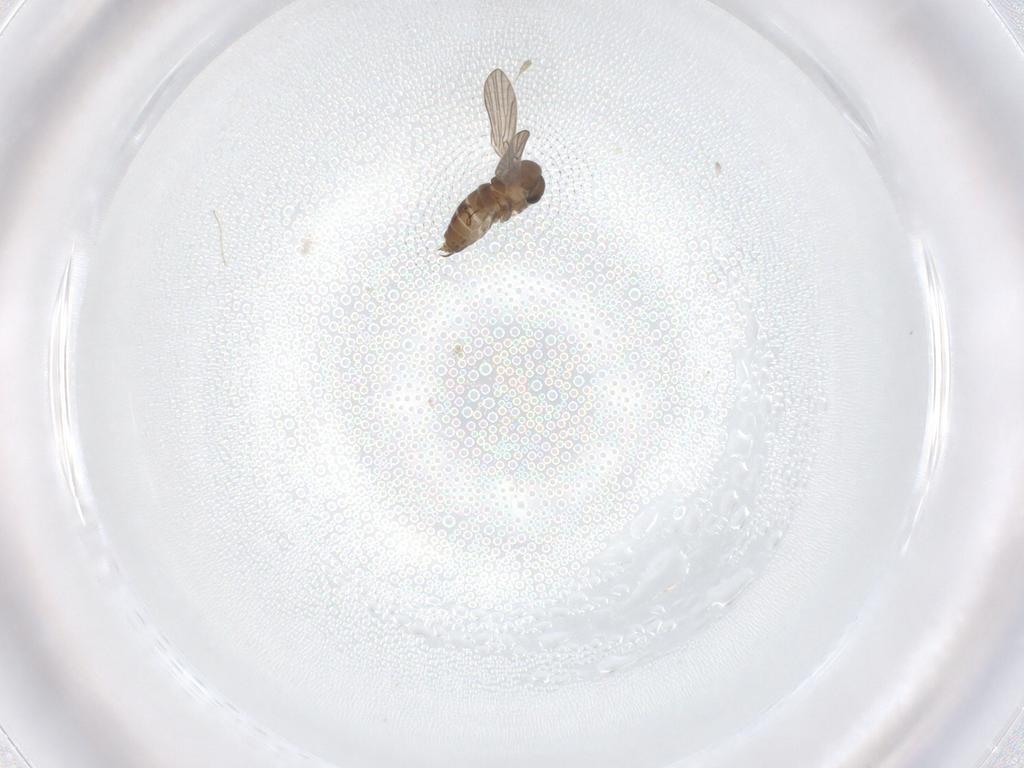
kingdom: Animalia
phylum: Arthropoda
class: Insecta
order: Diptera
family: Cecidomyiidae
